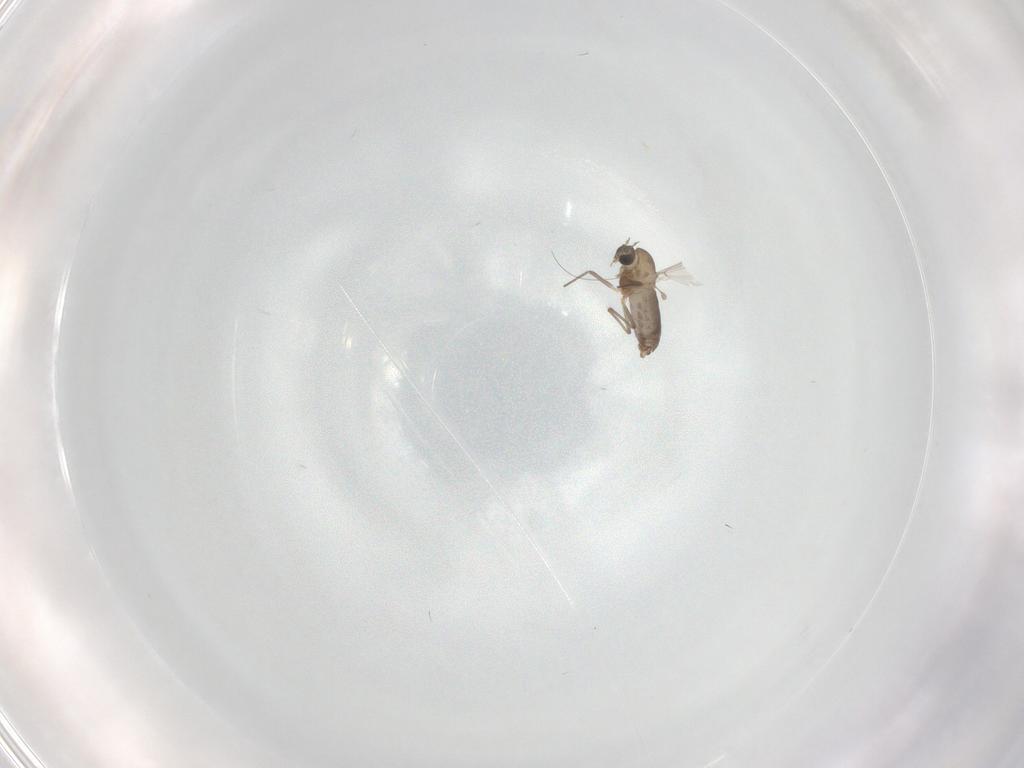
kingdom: Animalia
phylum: Arthropoda
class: Insecta
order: Diptera
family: Chironomidae
